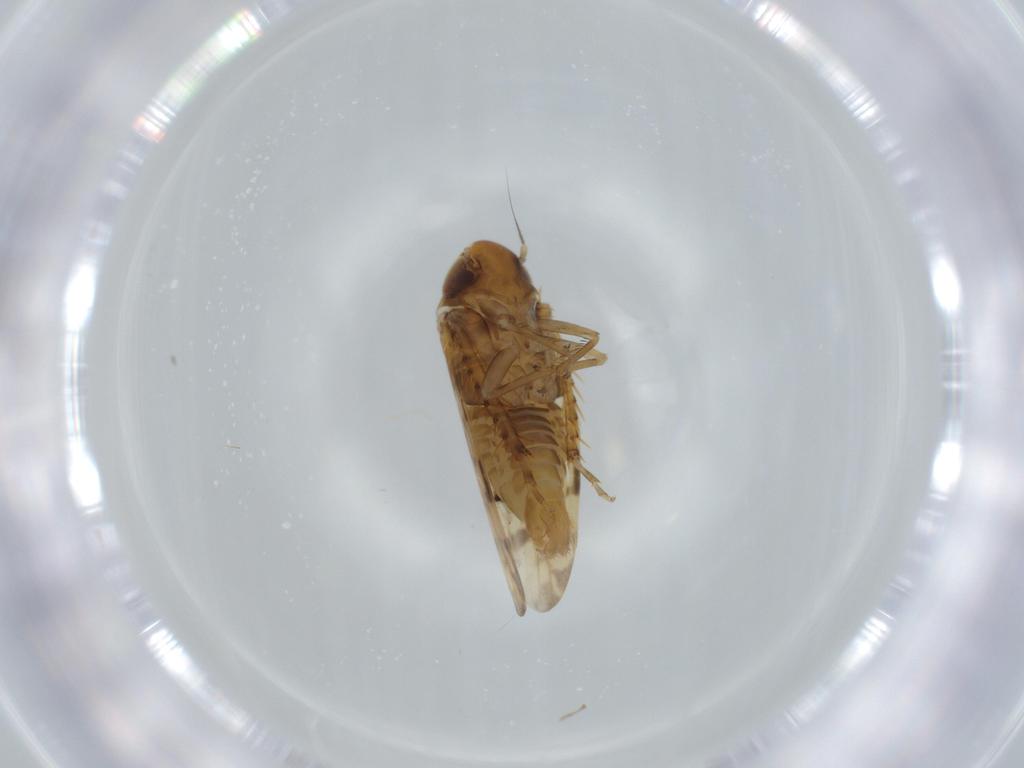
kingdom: Animalia
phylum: Arthropoda
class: Insecta
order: Hemiptera
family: Cicadellidae
